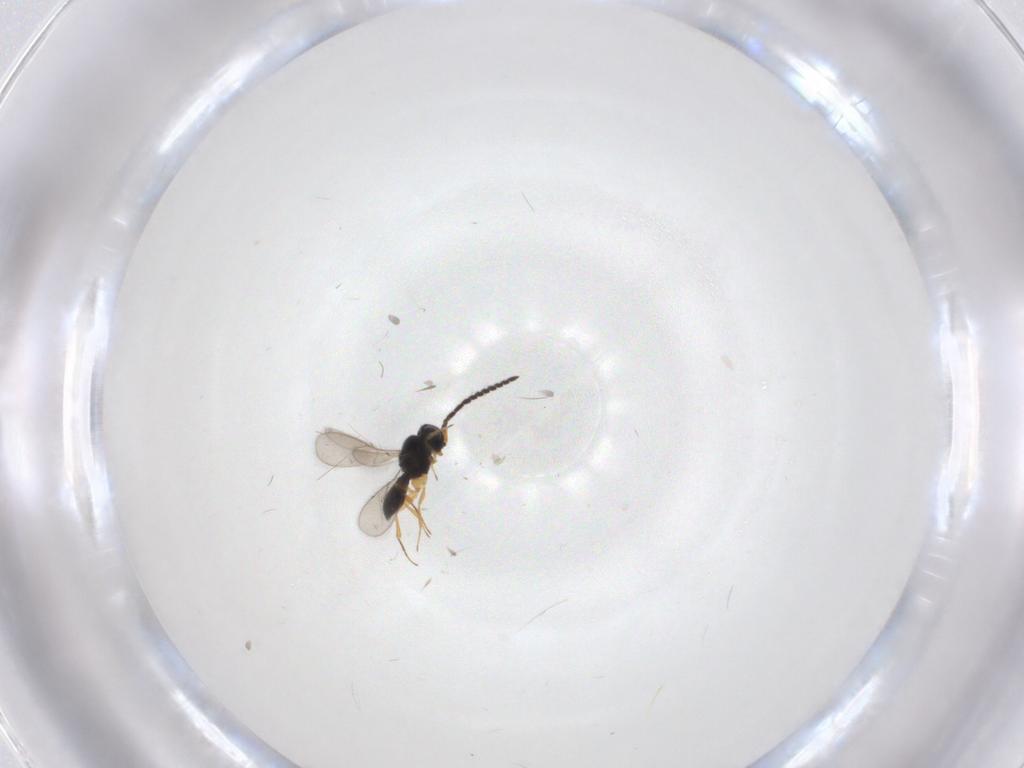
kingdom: Animalia
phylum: Arthropoda
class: Insecta
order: Hymenoptera
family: Scelionidae
